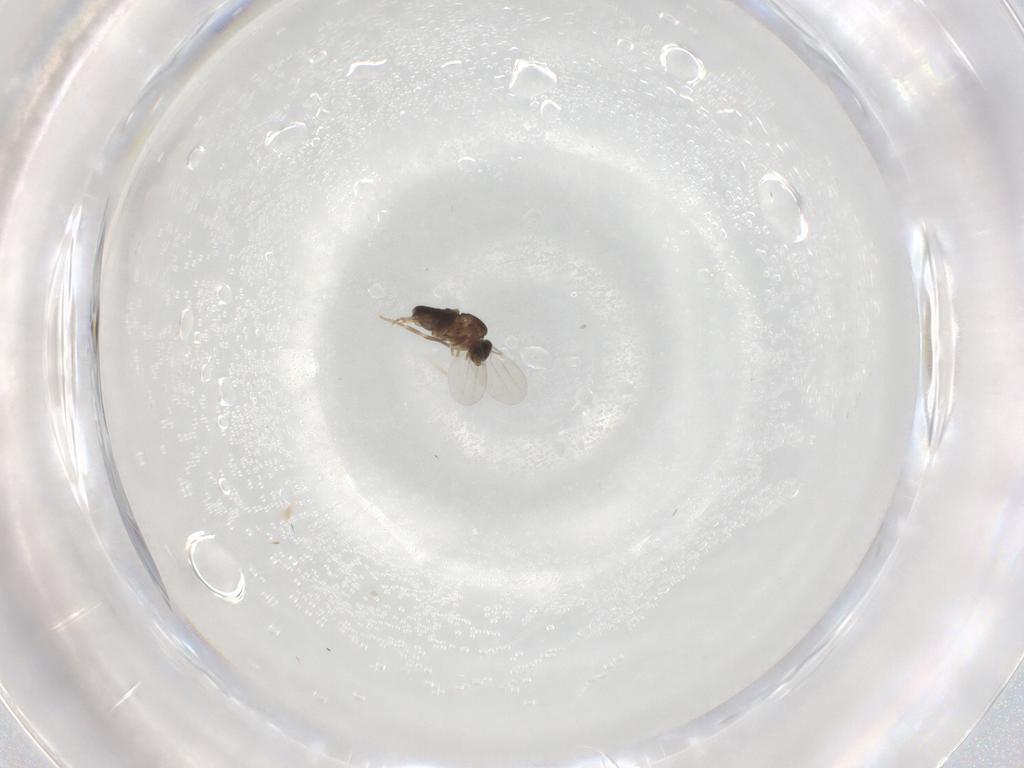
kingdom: Animalia
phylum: Arthropoda
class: Insecta
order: Diptera
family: Phoridae
